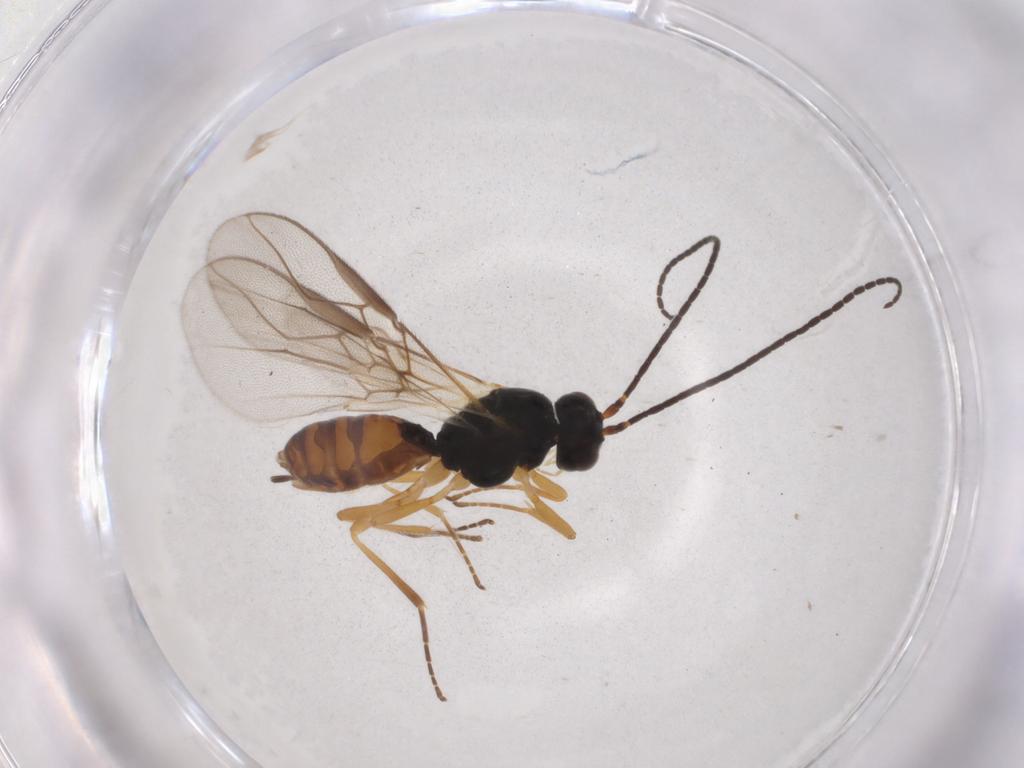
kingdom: Animalia
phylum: Arthropoda
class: Insecta
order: Hymenoptera
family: Braconidae
